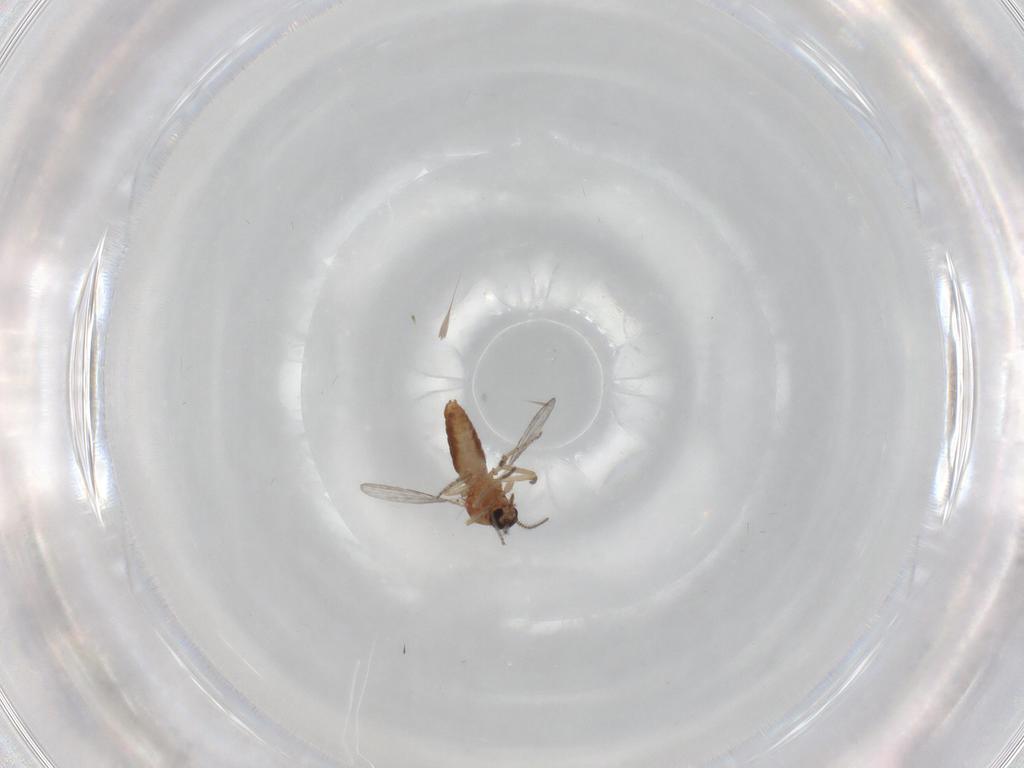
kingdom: Animalia
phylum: Arthropoda
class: Insecta
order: Diptera
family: Ceratopogonidae
